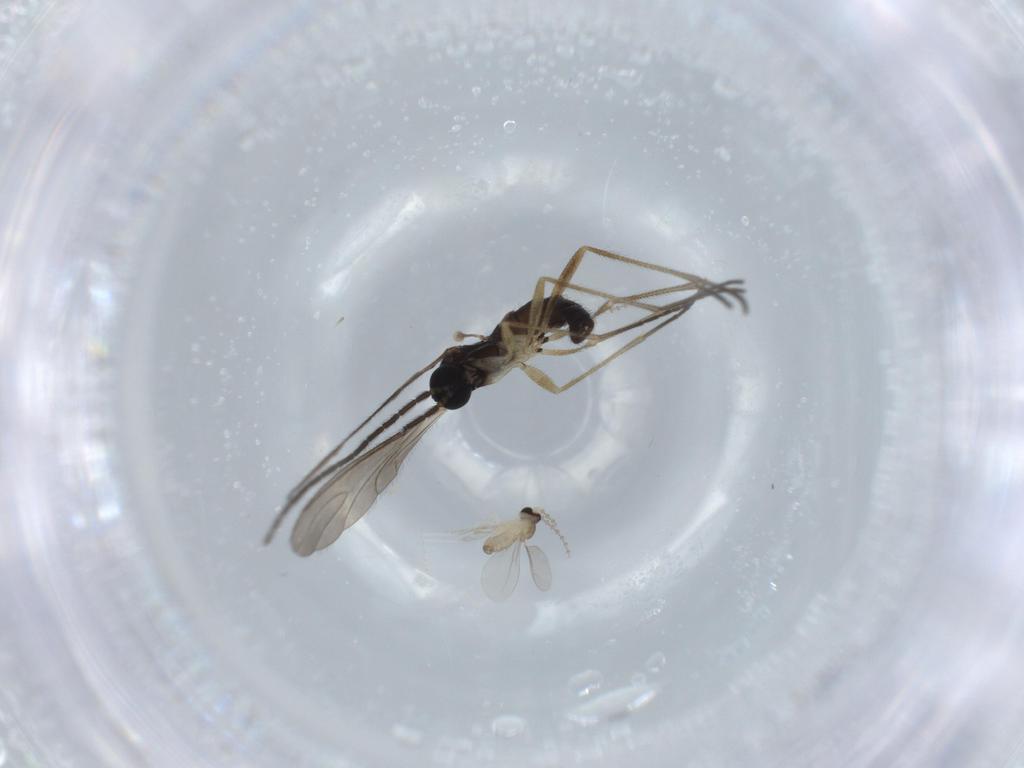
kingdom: Animalia
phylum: Arthropoda
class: Insecta
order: Diptera
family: Sciaridae
